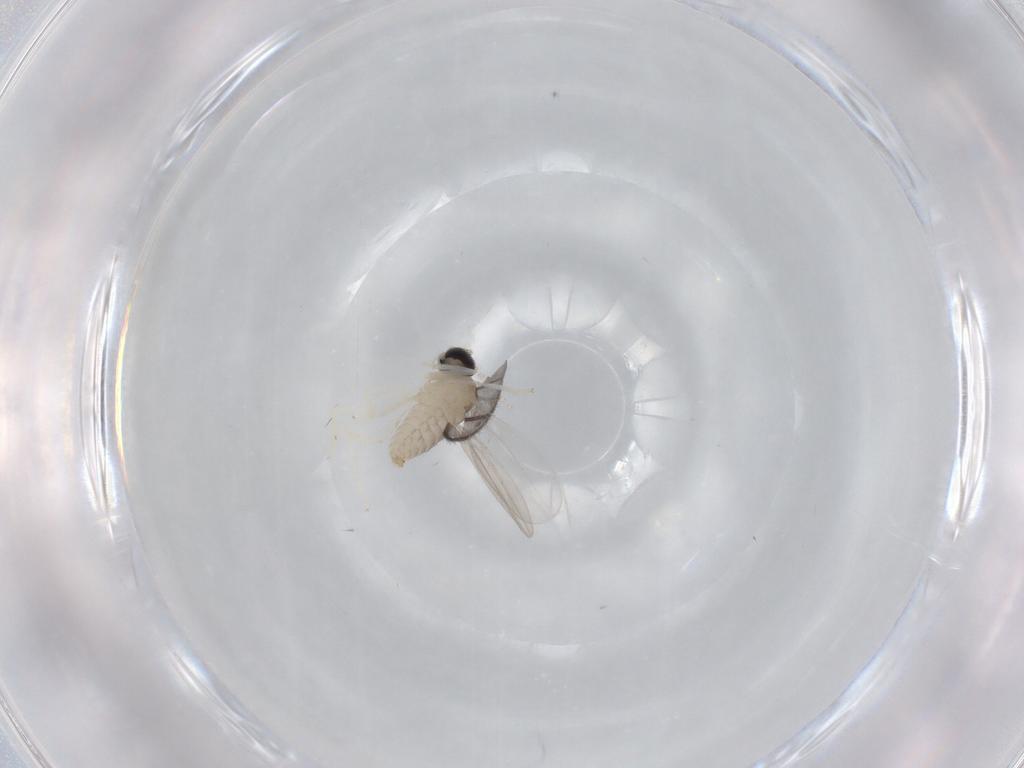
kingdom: Animalia
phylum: Arthropoda
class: Insecta
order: Diptera
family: Cecidomyiidae
